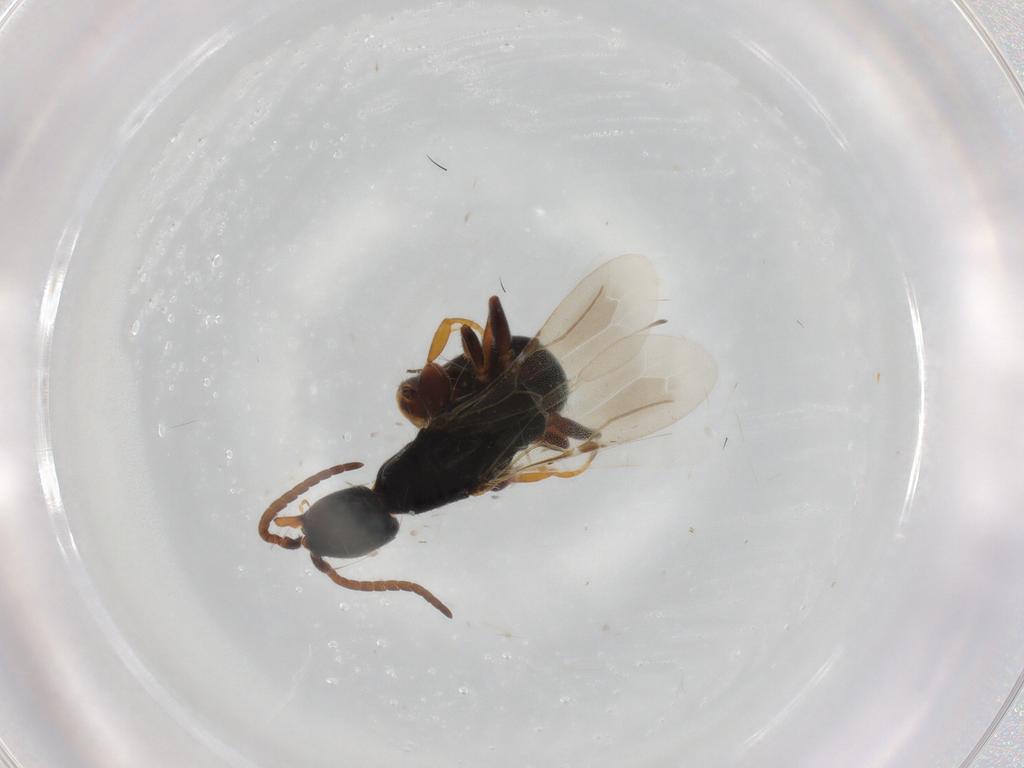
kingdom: Animalia
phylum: Arthropoda
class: Insecta
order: Hymenoptera
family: Bethylidae
